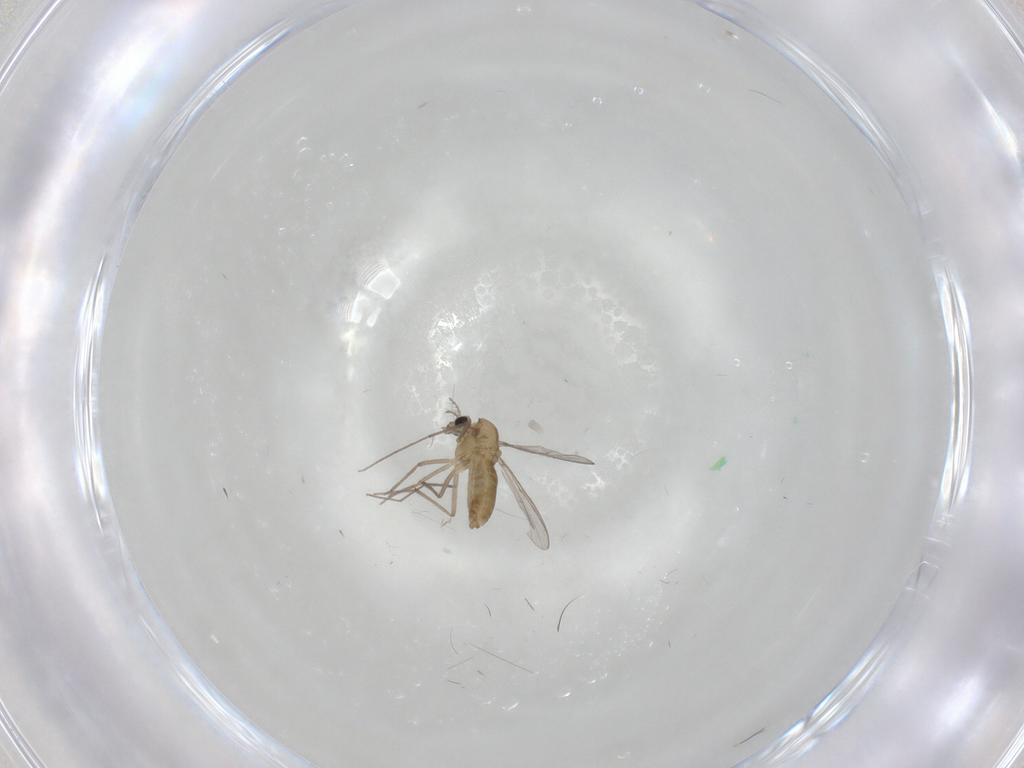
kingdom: Animalia
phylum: Arthropoda
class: Insecta
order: Diptera
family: Chironomidae
